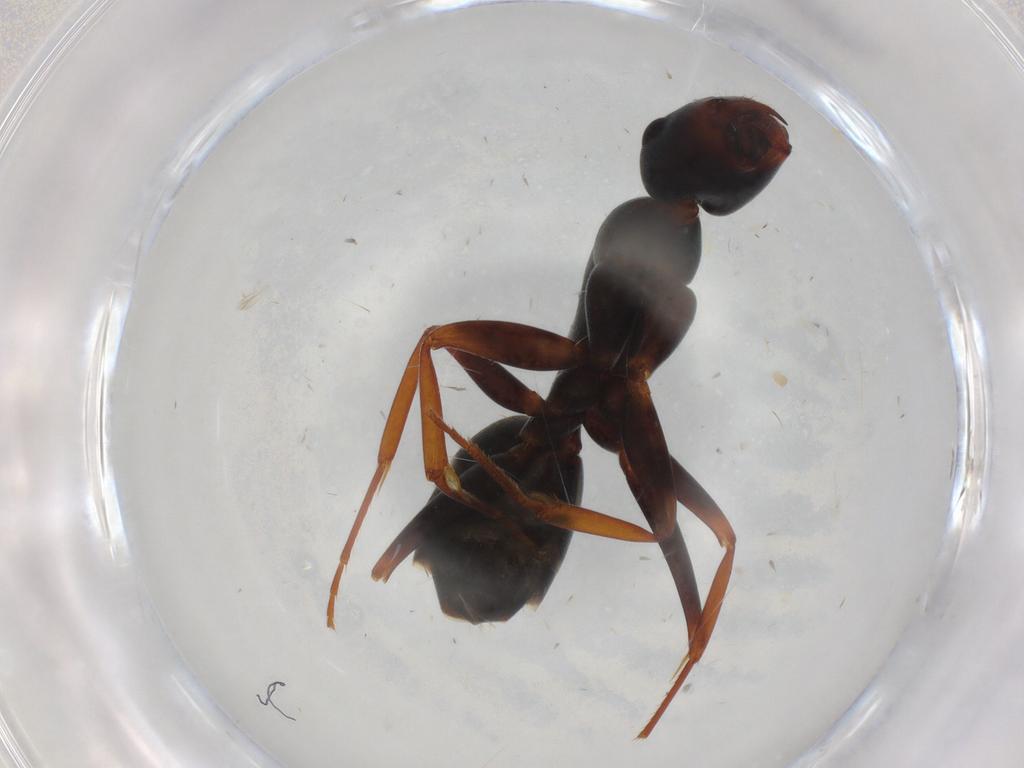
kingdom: Animalia
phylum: Arthropoda
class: Insecta
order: Hymenoptera
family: Formicidae
